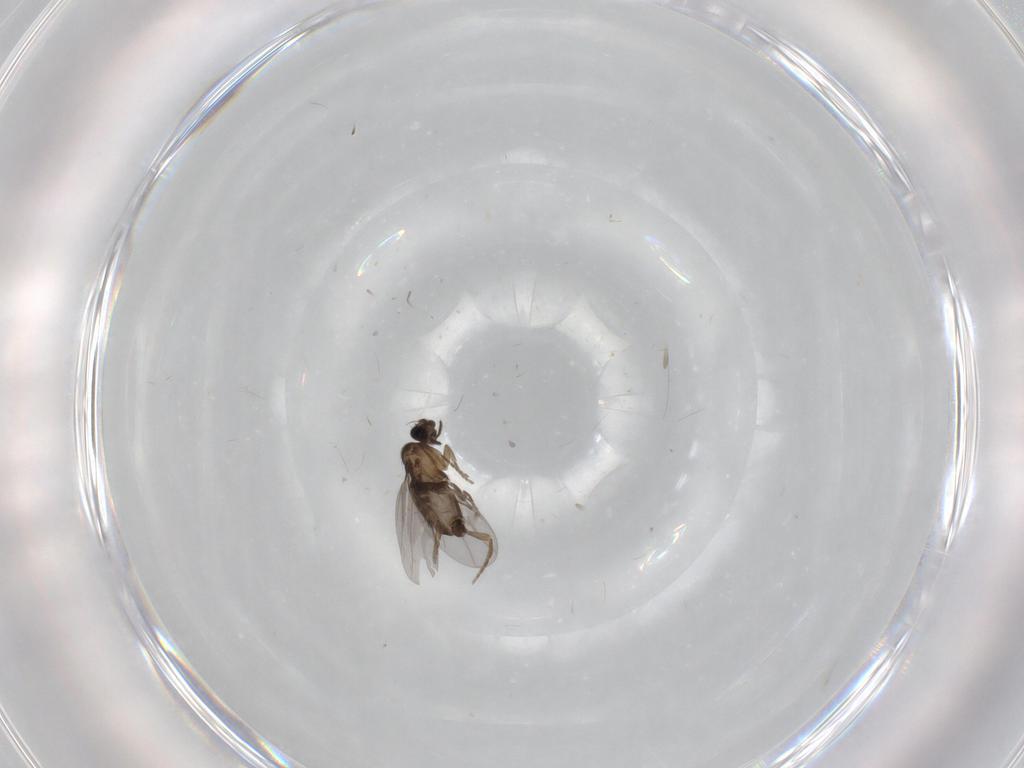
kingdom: Animalia
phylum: Arthropoda
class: Insecta
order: Diptera
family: Phoridae
